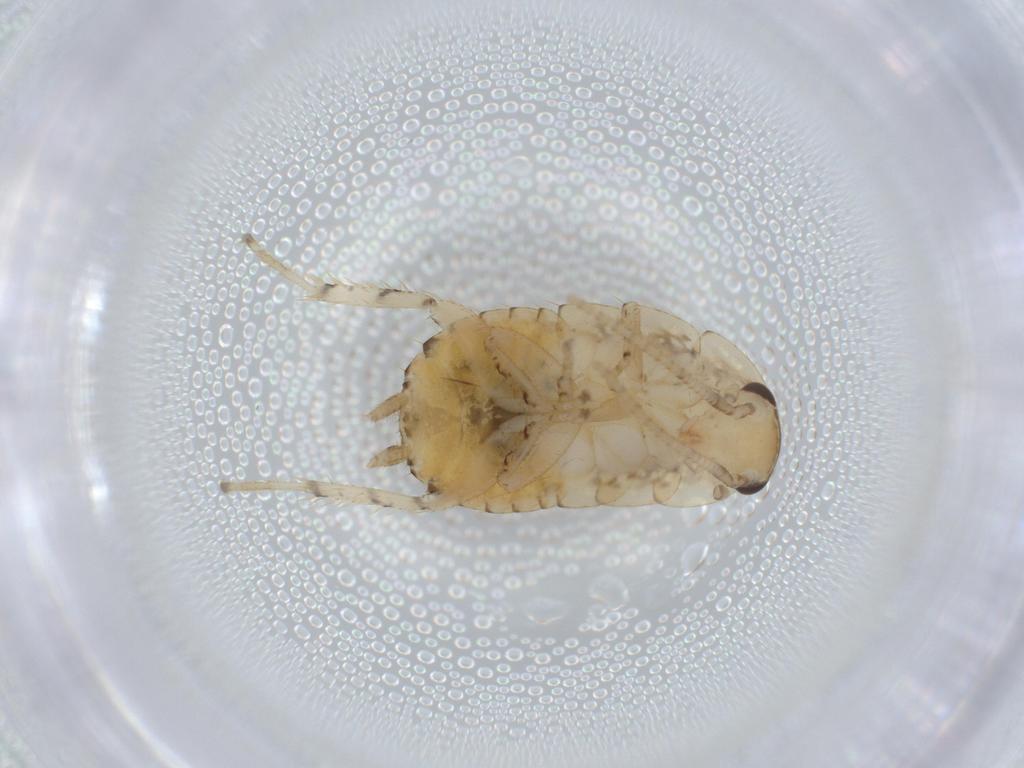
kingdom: Animalia
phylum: Arthropoda
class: Insecta
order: Blattodea
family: Ectobiidae
